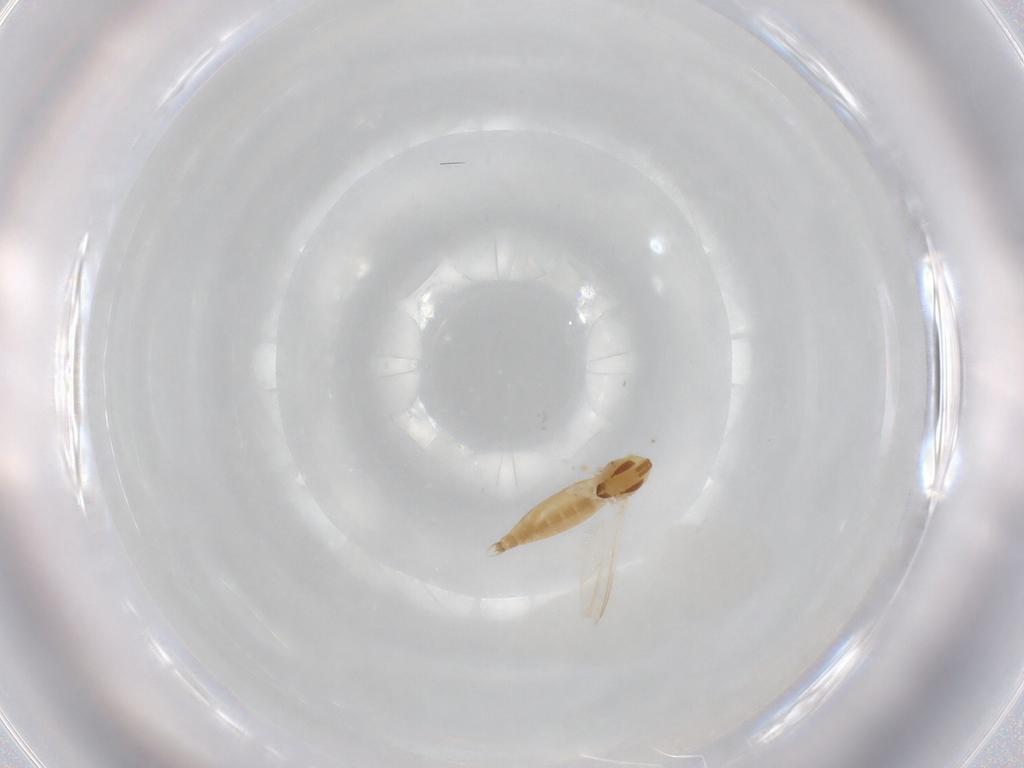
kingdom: Animalia
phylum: Arthropoda
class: Insecta
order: Diptera
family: Chironomidae
